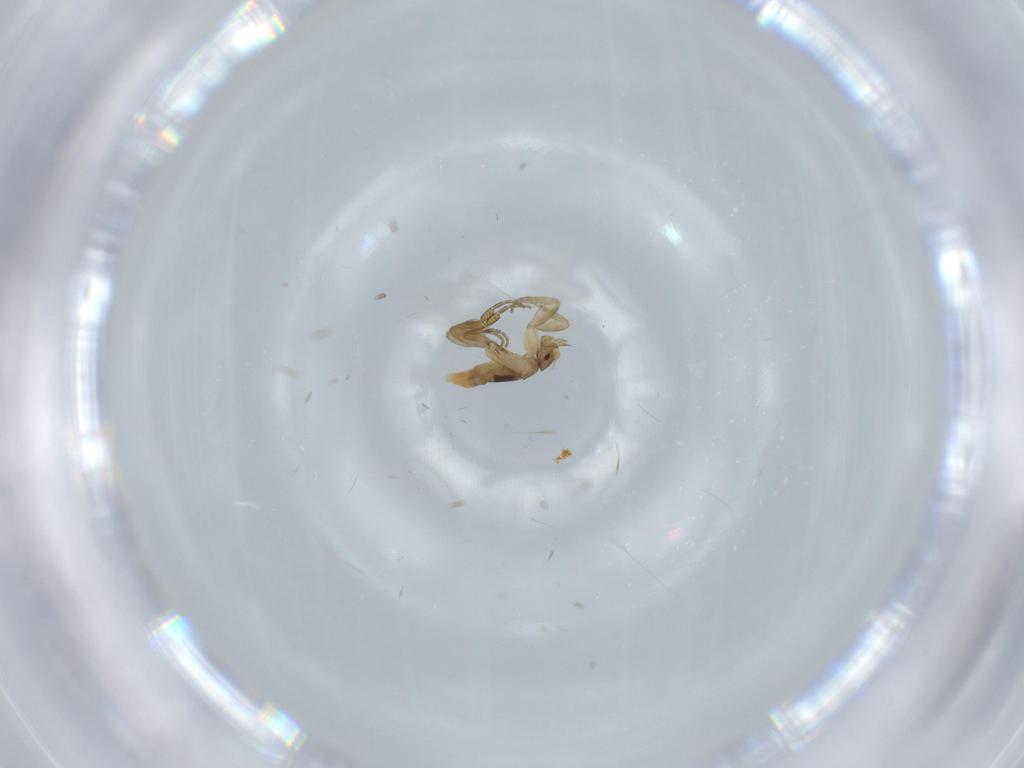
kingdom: Animalia
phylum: Arthropoda
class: Insecta
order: Diptera
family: Phoridae
